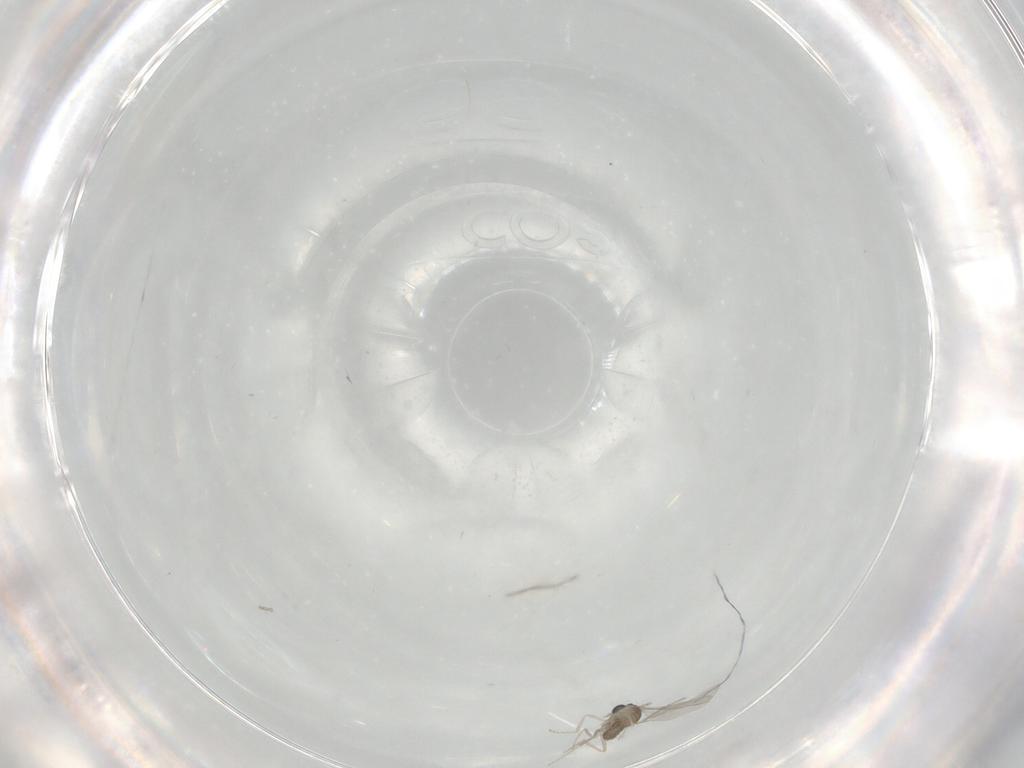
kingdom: Animalia
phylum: Arthropoda
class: Insecta
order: Diptera
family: Cecidomyiidae
